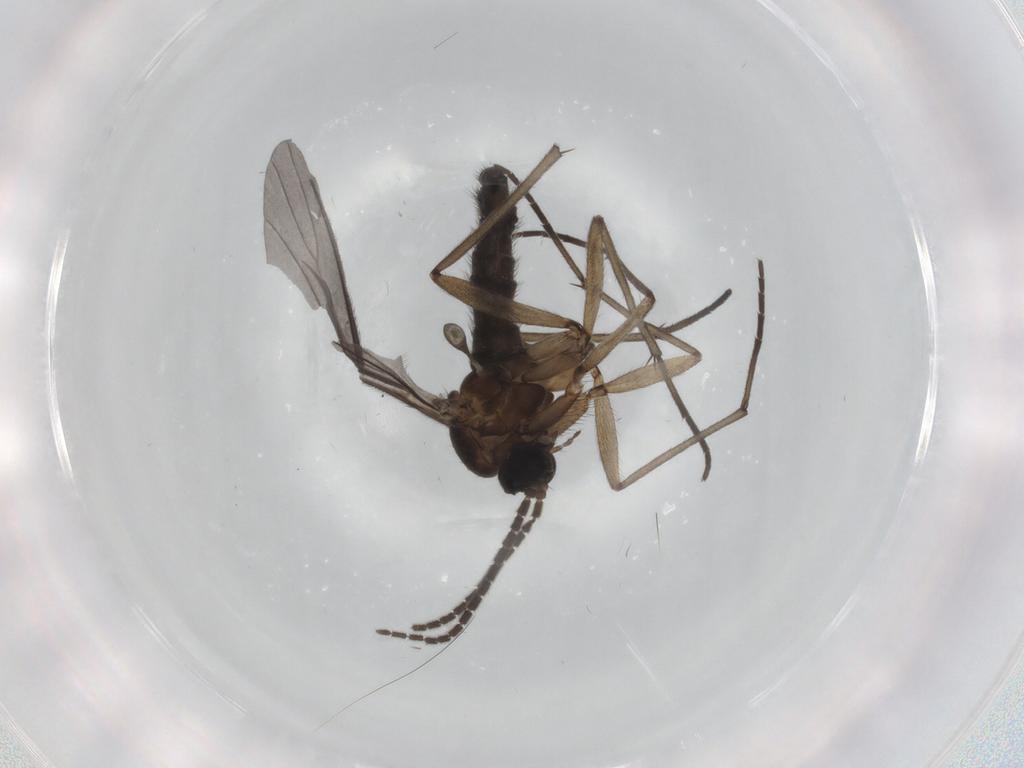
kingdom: Animalia
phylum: Arthropoda
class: Insecta
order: Diptera
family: Sciaridae
